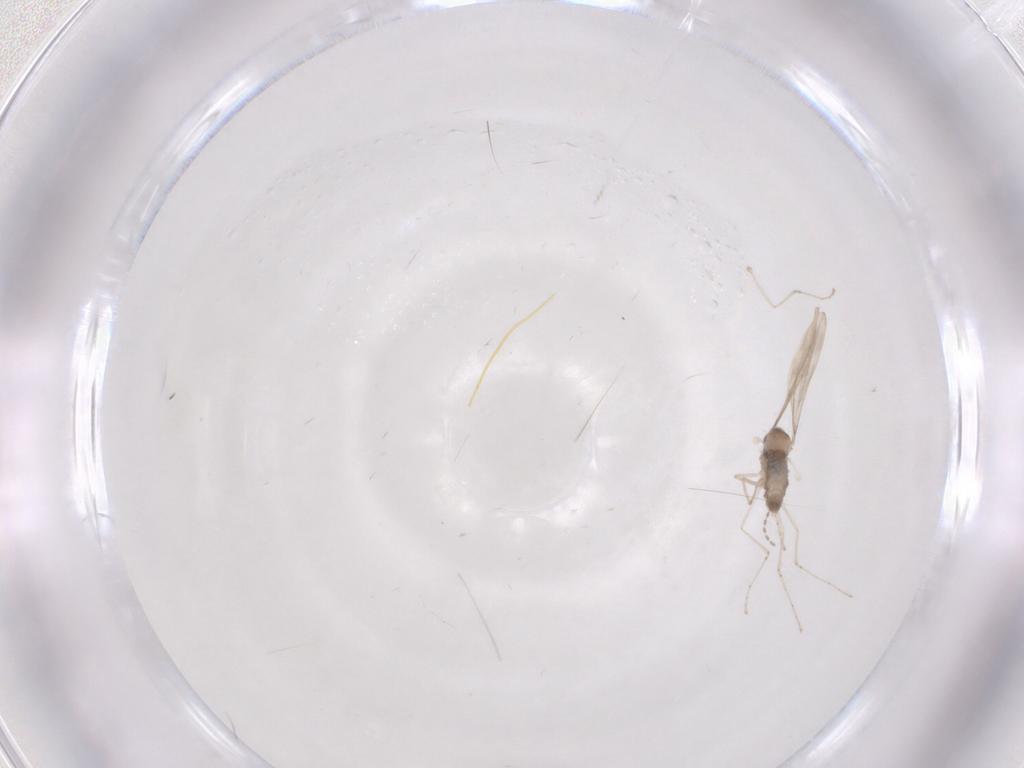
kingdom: Animalia
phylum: Arthropoda
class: Insecta
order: Diptera
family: Cecidomyiidae
